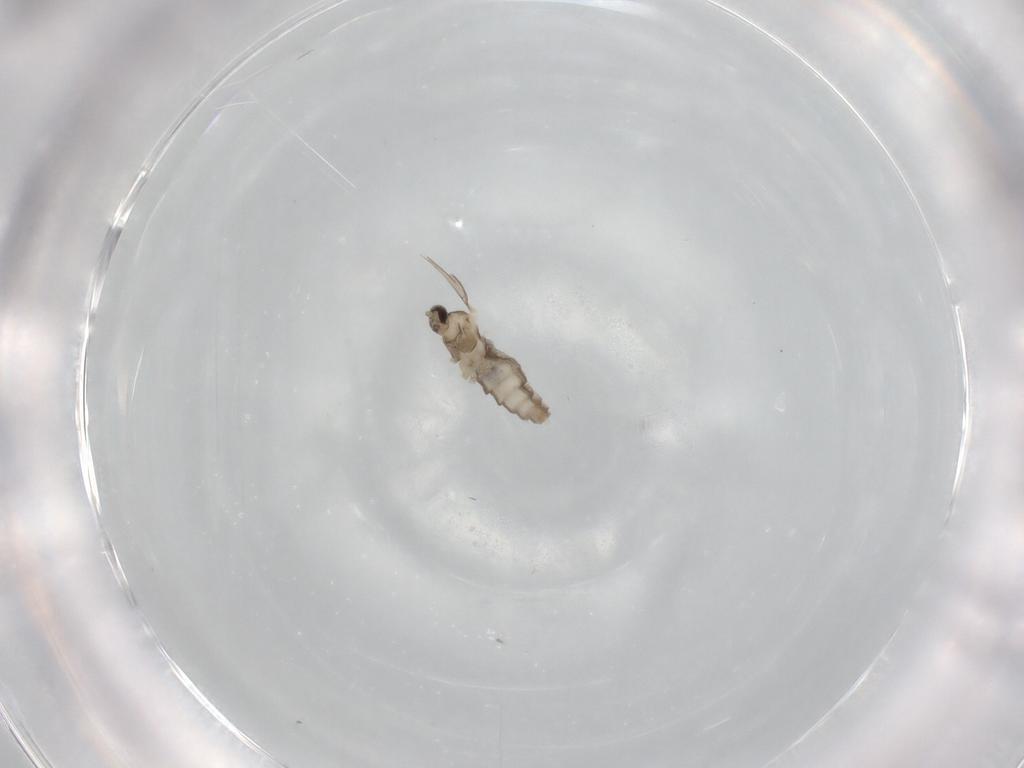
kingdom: Animalia
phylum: Arthropoda
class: Insecta
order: Diptera
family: Cecidomyiidae
